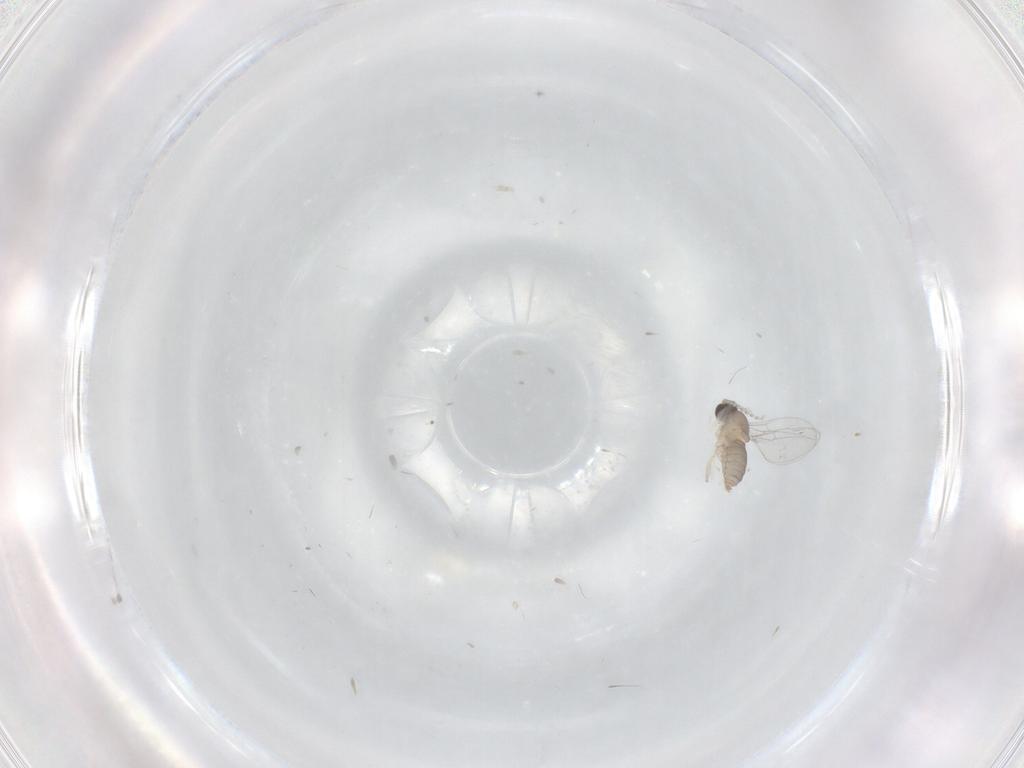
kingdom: Animalia
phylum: Arthropoda
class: Insecta
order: Diptera
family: Cecidomyiidae
